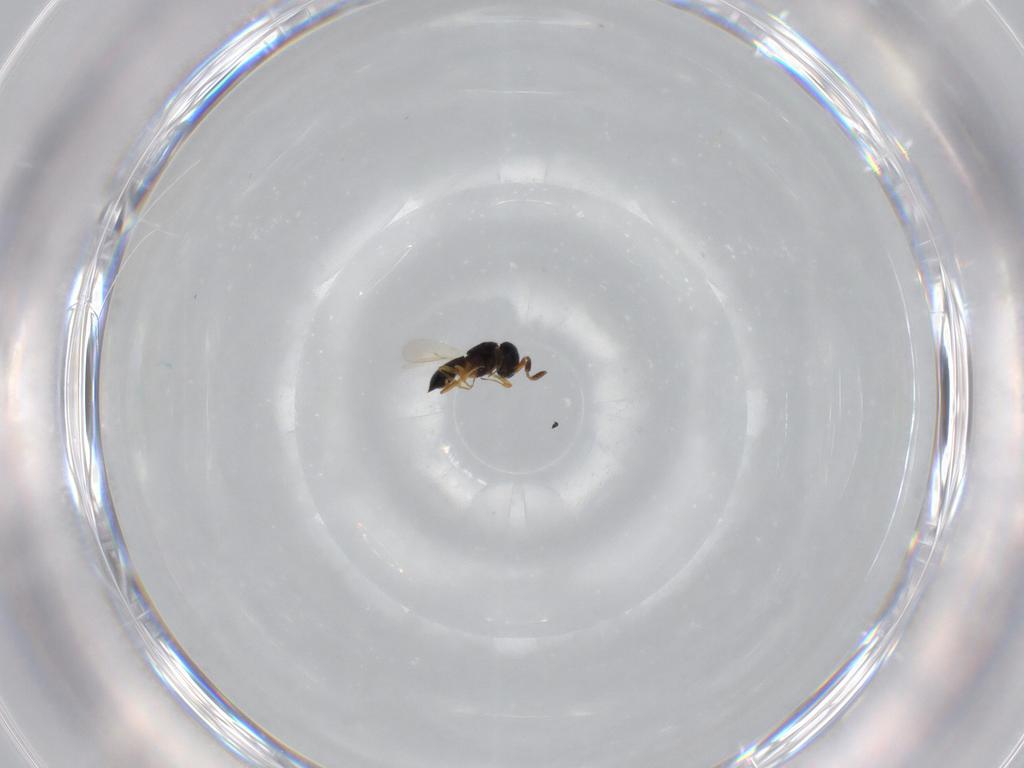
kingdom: Animalia
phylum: Arthropoda
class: Insecta
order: Hymenoptera
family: Scelionidae
